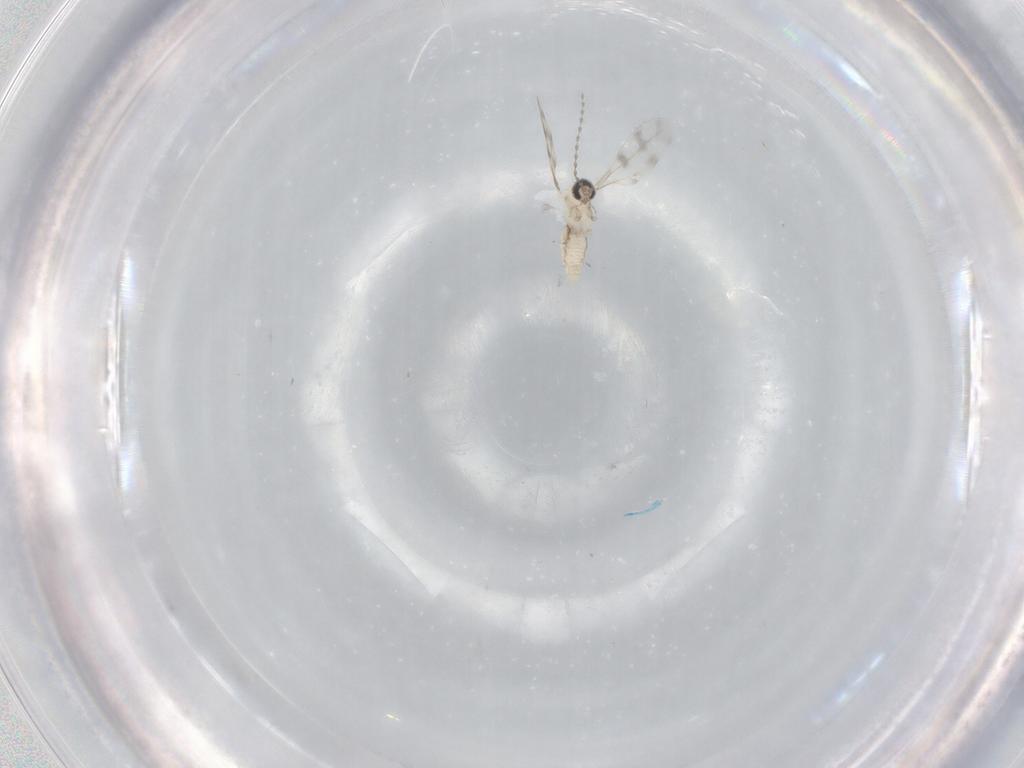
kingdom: Animalia
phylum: Arthropoda
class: Insecta
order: Diptera
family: Cecidomyiidae
